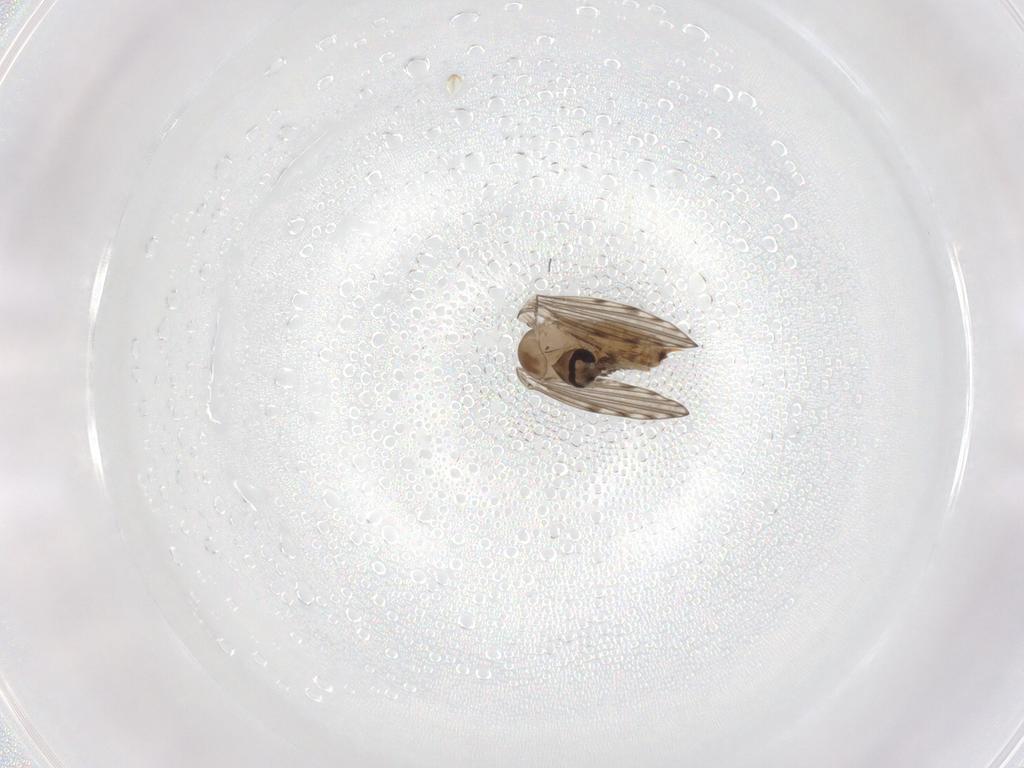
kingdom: Animalia
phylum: Arthropoda
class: Insecta
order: Diptera
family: Psychodidae
